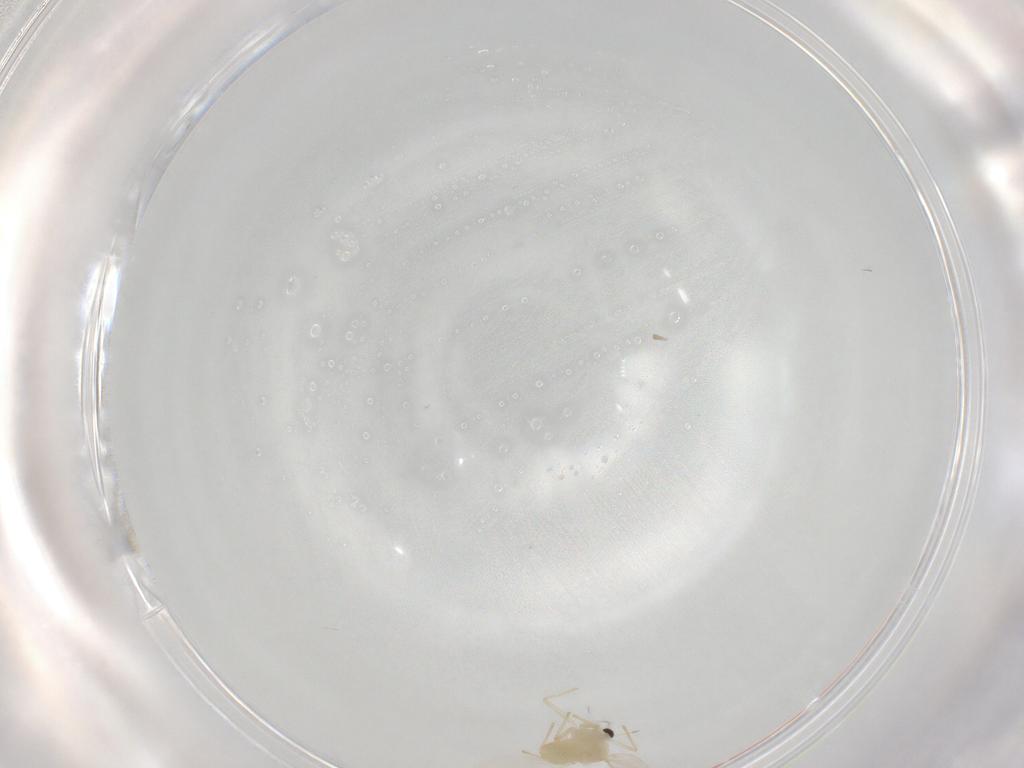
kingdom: Animalia
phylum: Arthropoda
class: Insecta
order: Diptera
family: Chironomidae
